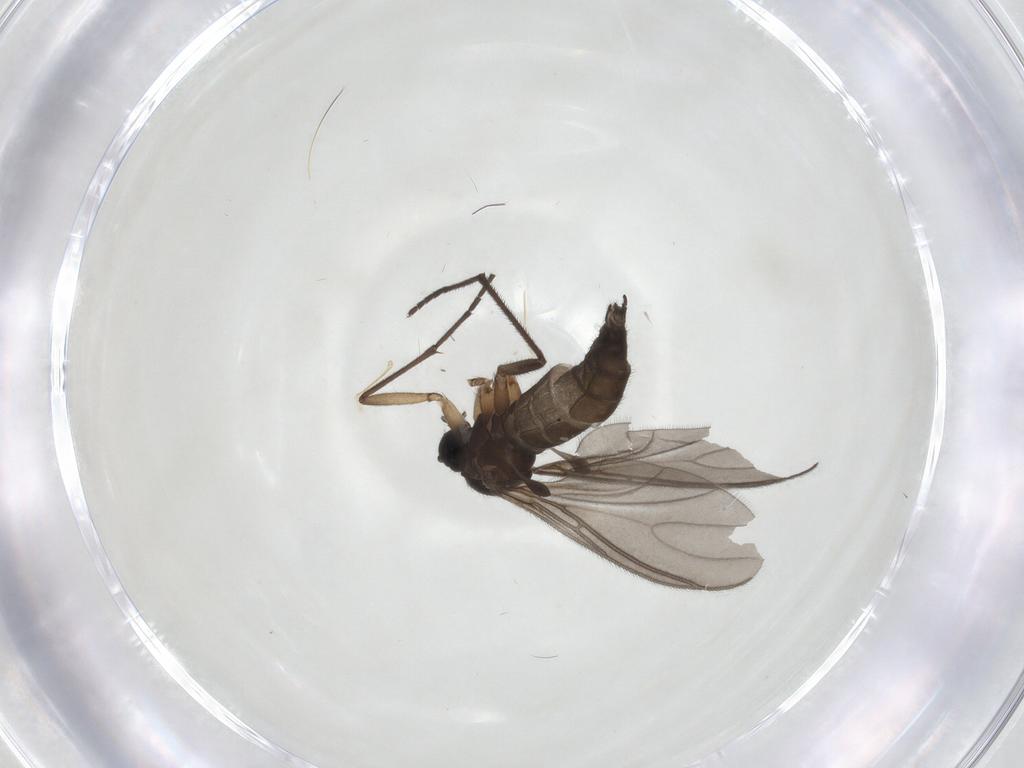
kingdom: Animalia
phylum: Arthropoda
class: Insecta
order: Diptera
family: Sciaridae
